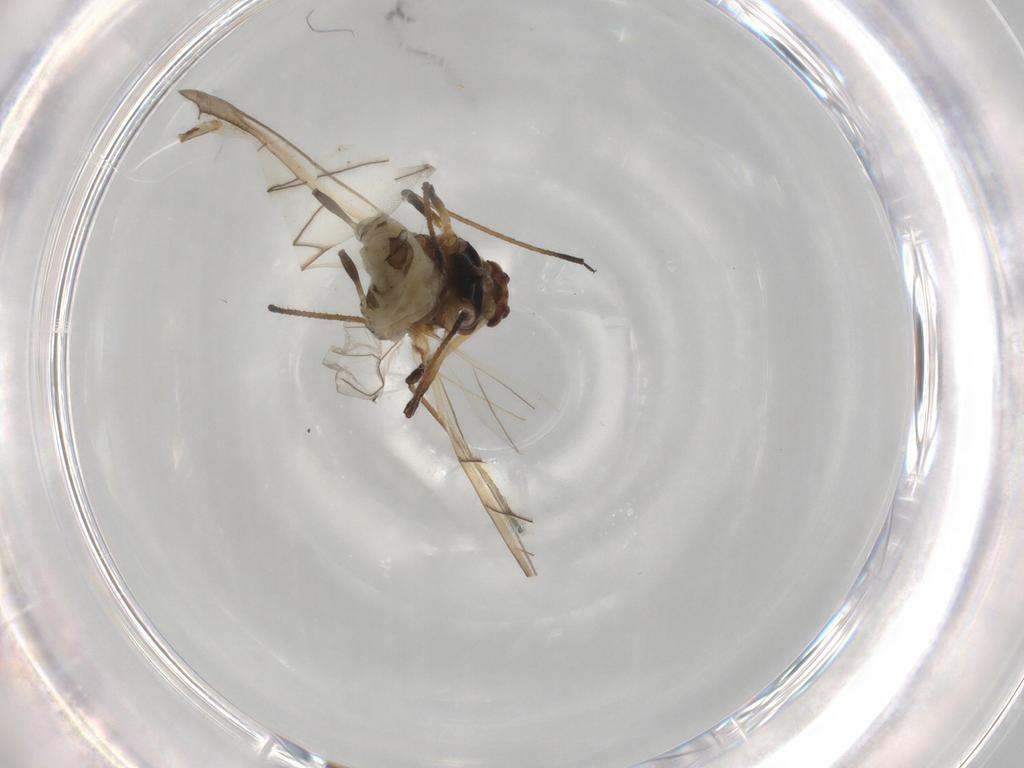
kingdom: Animalia
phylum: Arthropoda
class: Insecta
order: Hemiptera
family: Aphididae
